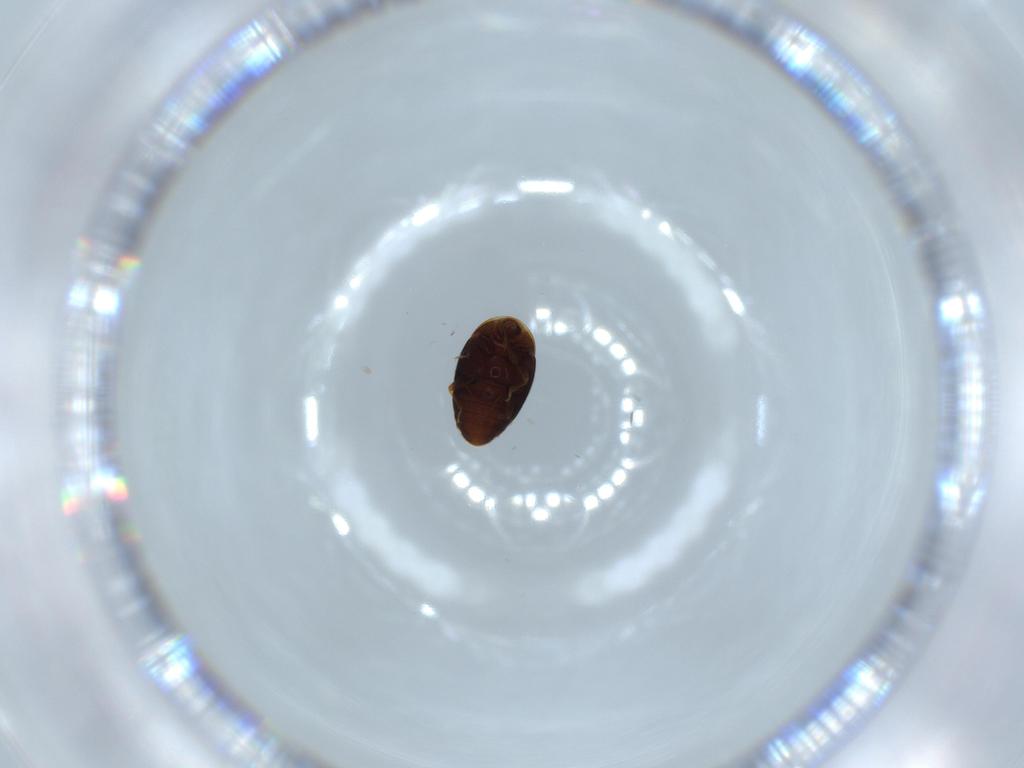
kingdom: Animalia
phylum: Arthropoda
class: Insecta
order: Coleoptera
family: Corylophidae
